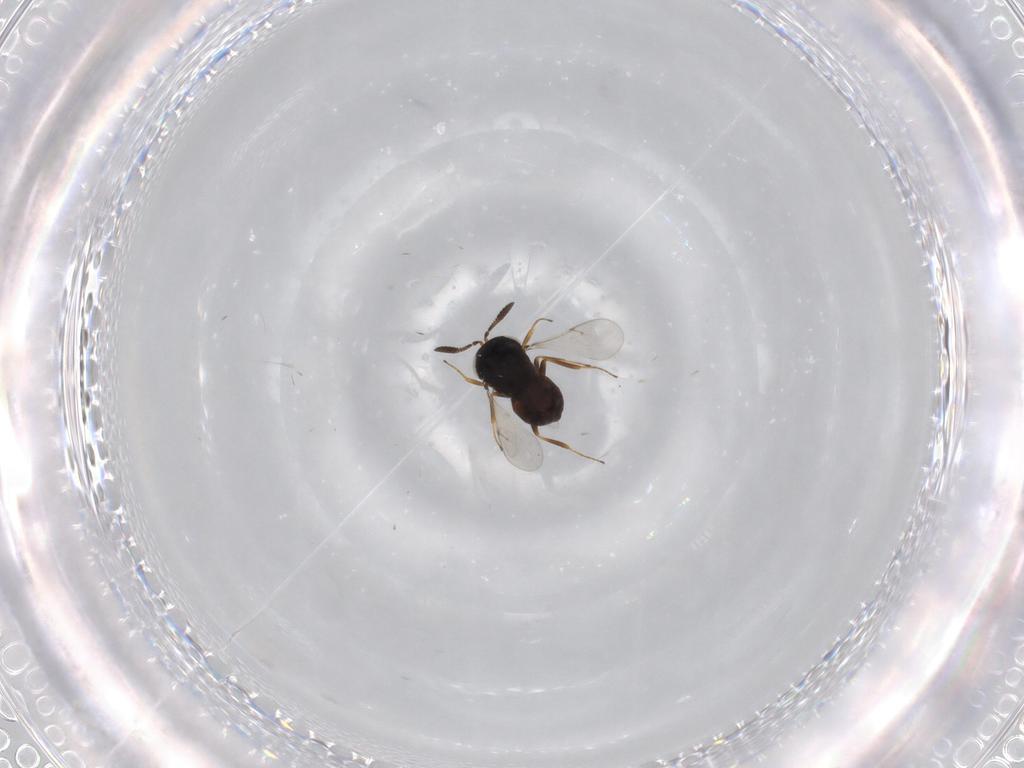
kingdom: Animalia
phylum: Arthropoda
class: Insecta
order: Hymenoptera
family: Scelionidae
